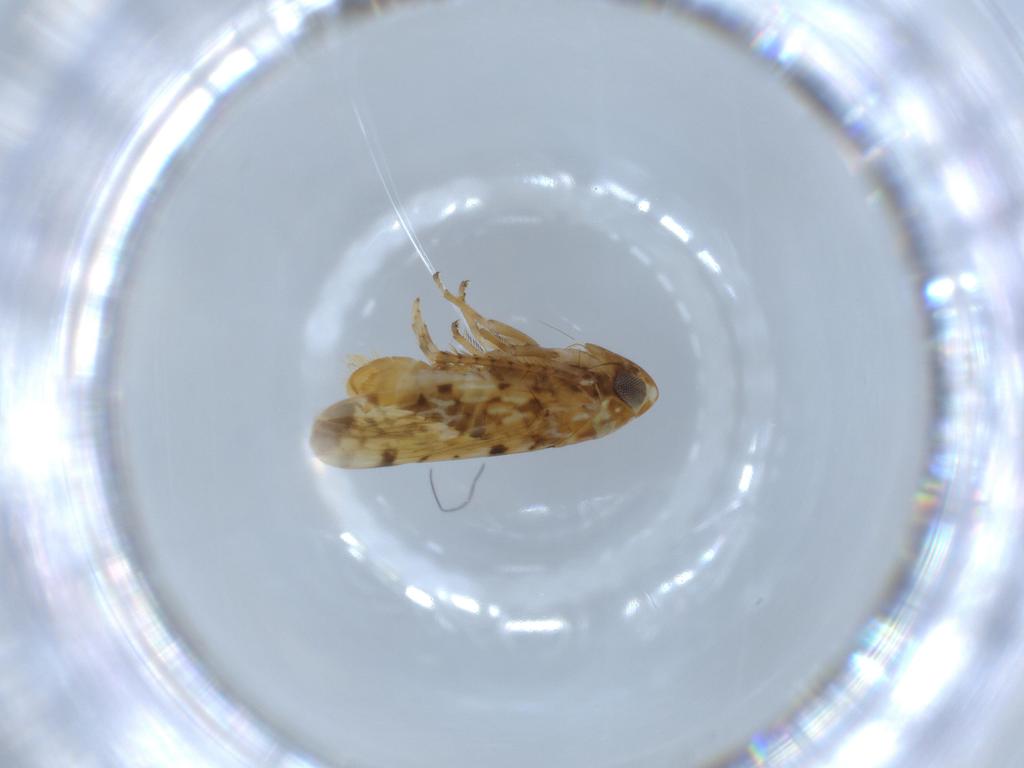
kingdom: Animalia
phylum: Arthropoda
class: Insecta
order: Hemiptera
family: Cicadellidae
